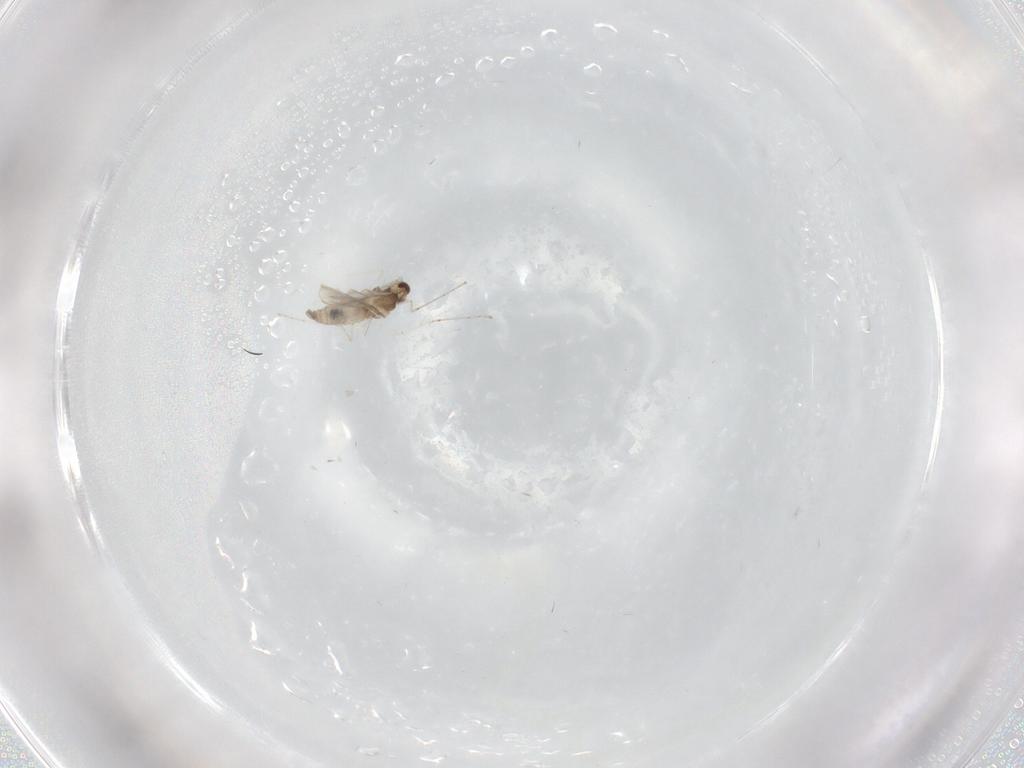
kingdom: Animalia
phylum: Arthropoda
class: Insecta
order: Diptera
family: Cecidomyiidae
